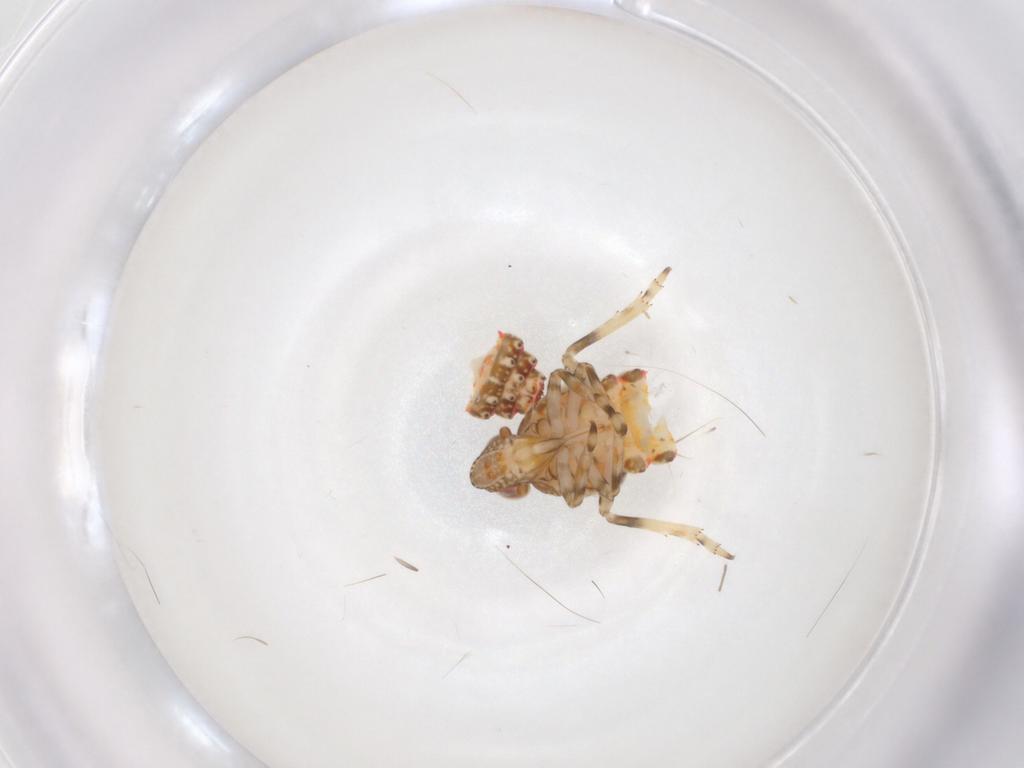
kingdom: Animalia
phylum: Arthropoda
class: Insecta
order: Hemiptera
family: Tropiduchidae
